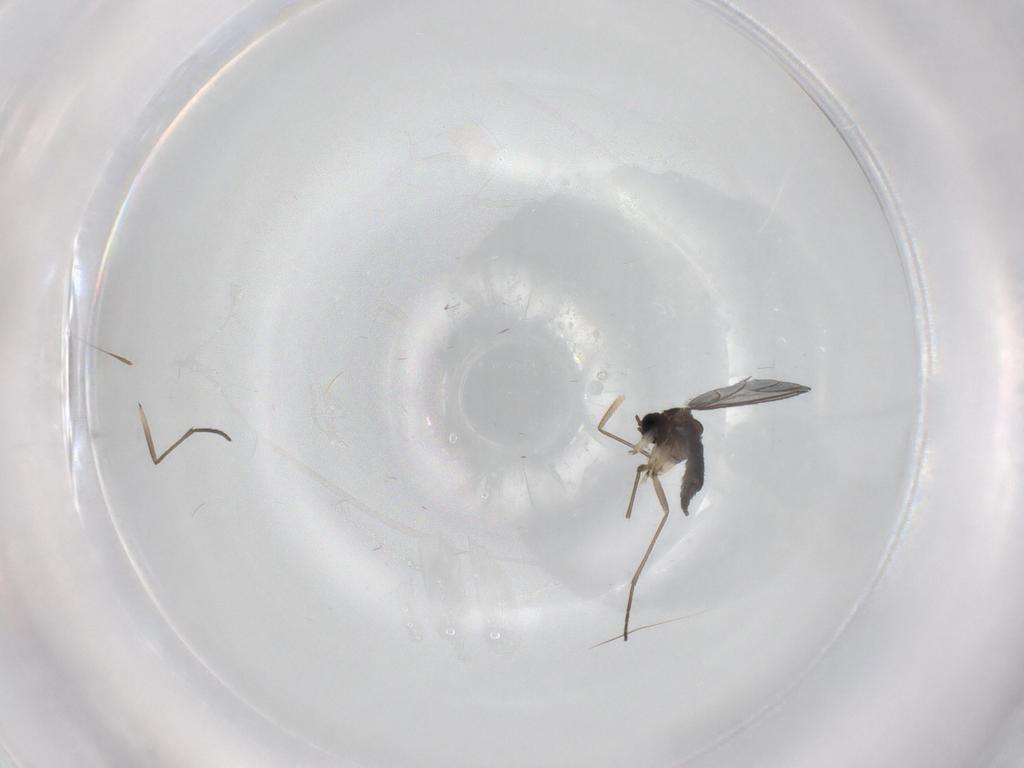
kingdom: Animalia
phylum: Arthropoda
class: Insecta
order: Diptera
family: Sciaridae
